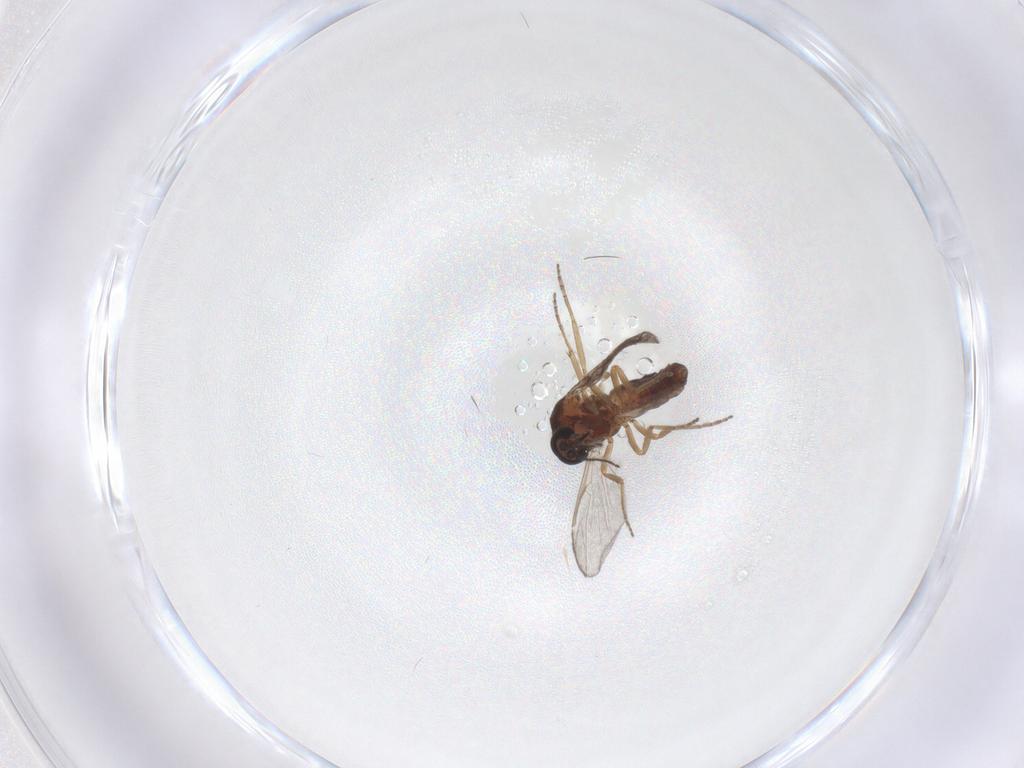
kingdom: Animalia
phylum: Arthropoda
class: Insecta
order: Diptera
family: Ceratopogonidae
